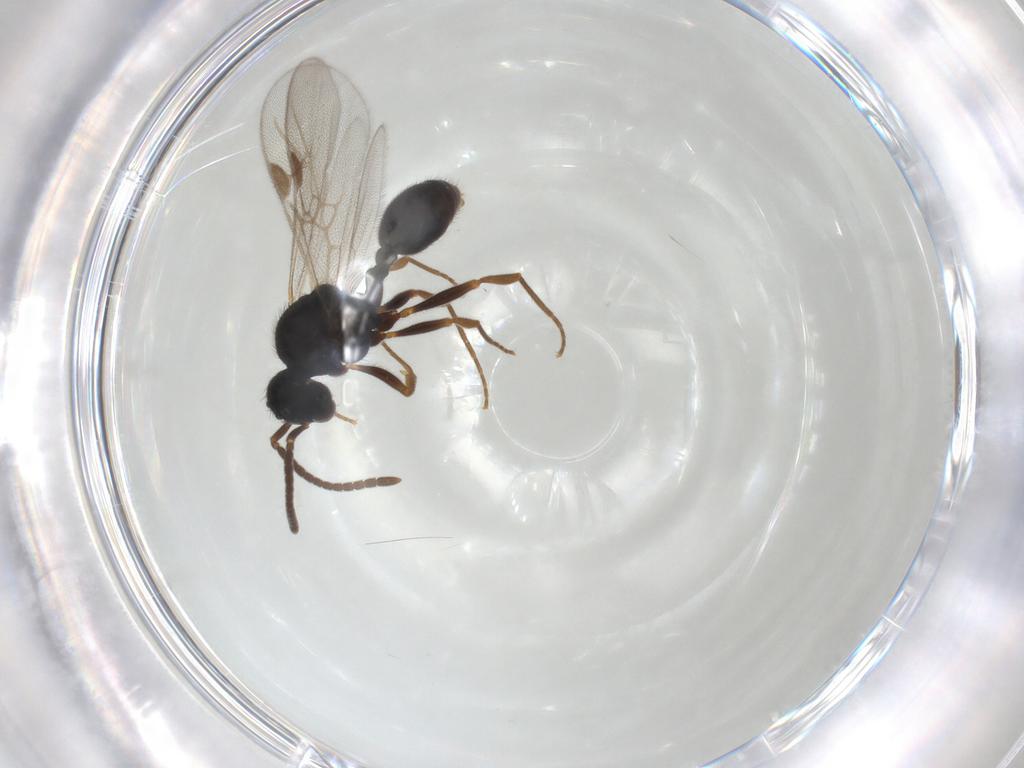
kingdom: Animalia
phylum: Arthropoda
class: Insecta
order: Hymenoptera
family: Formicidae
